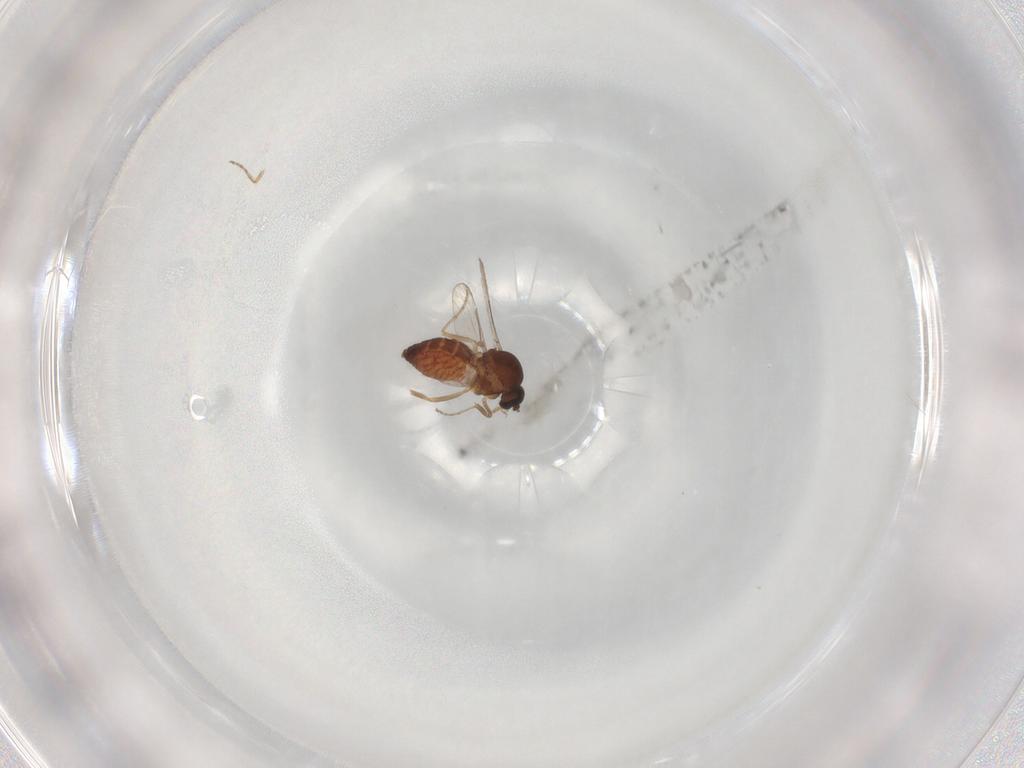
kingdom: Animalia
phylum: Arthropoda
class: Insecta
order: Diptera
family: Ceratopogonidae
